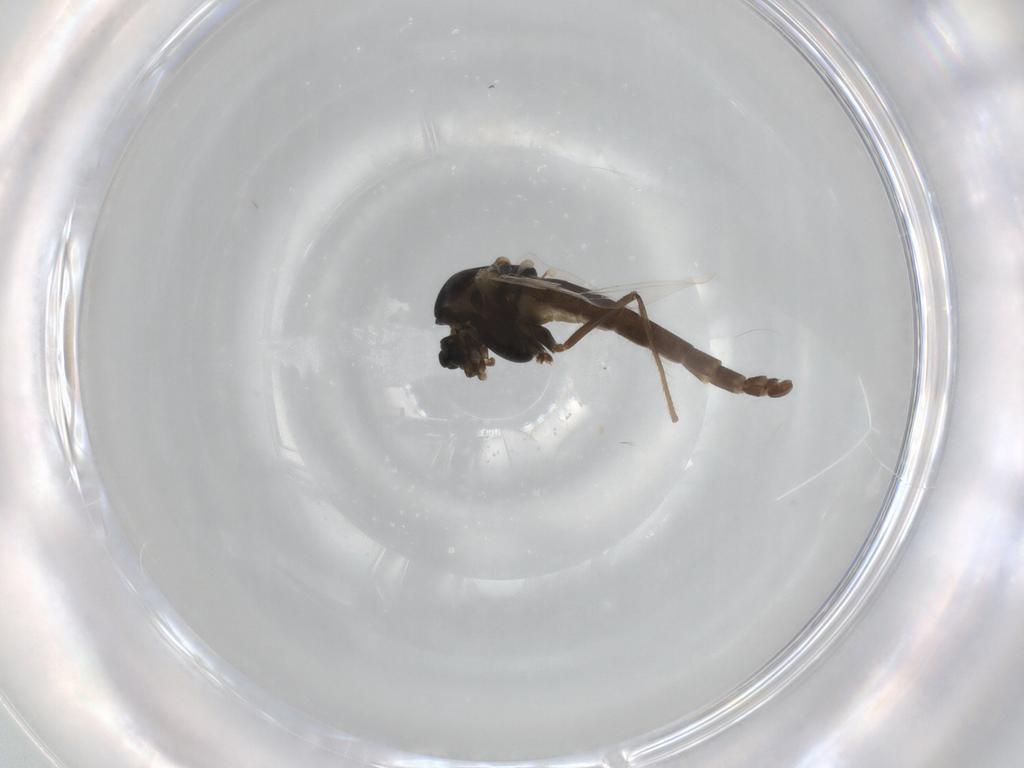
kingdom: Animalia
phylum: Arthropoda
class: Insecta
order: Diptera
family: Chironomidae
